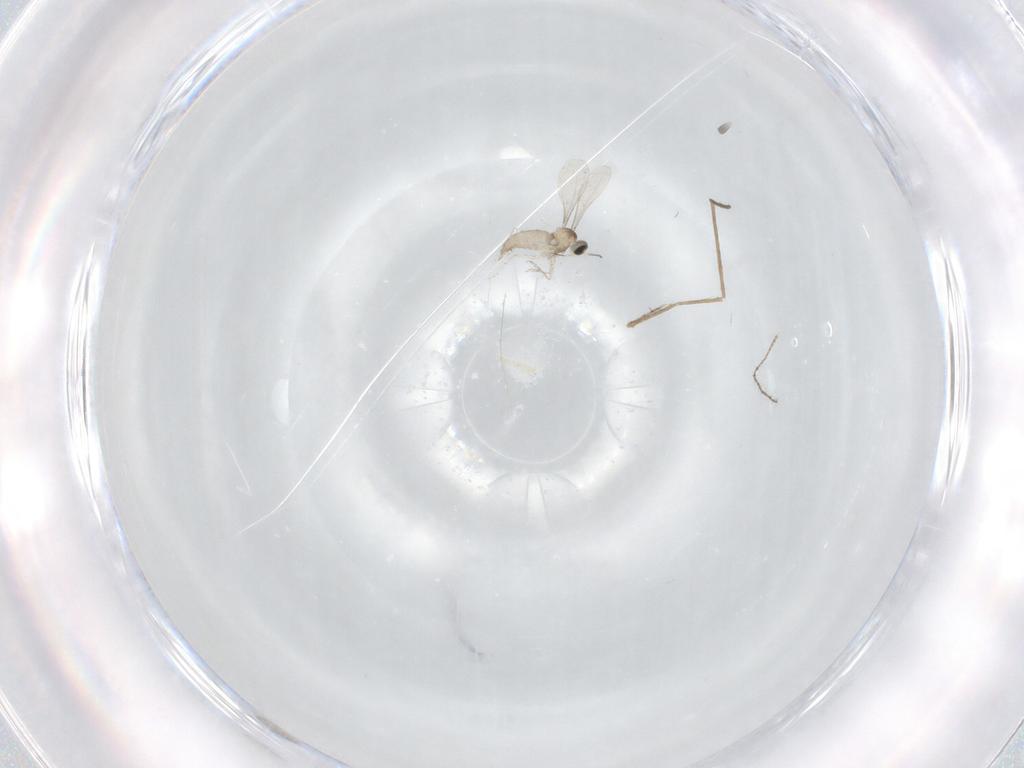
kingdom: Animalia
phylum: Arthropoda
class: Insecta
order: Diptera
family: Cecidomyiidae
